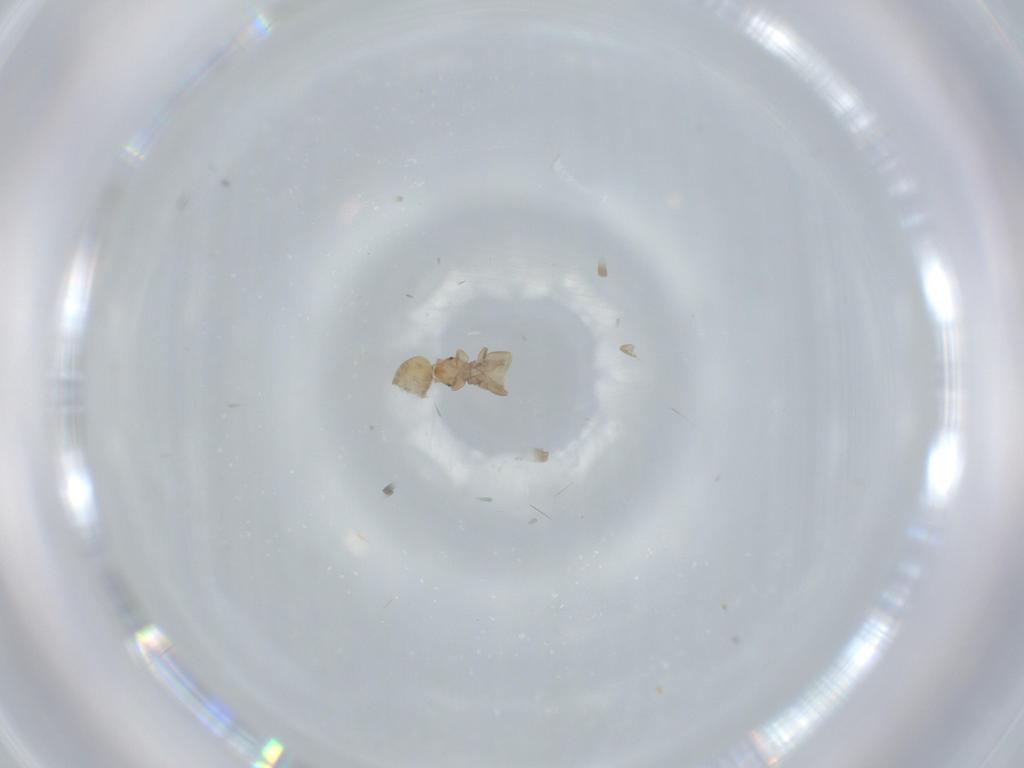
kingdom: Animalia
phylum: Arthropoda
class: Insecta
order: Psocodea
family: Liposcelididae
